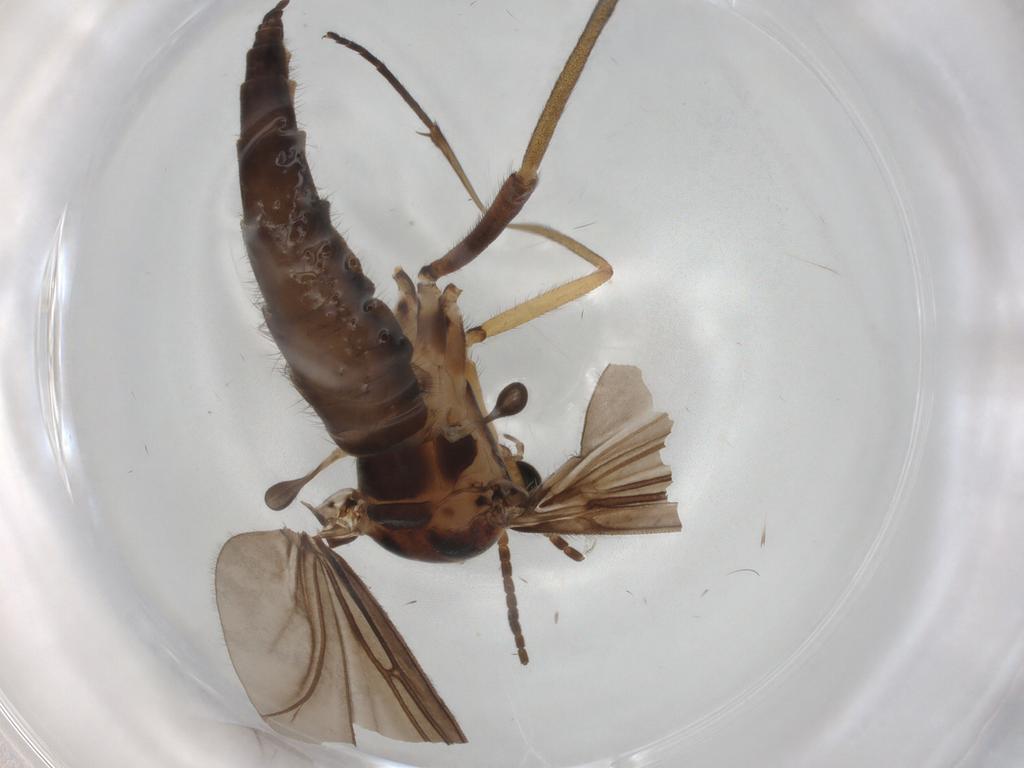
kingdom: Animalia
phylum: Arthropoda
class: Insecta
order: Diptera
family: Sciaridae
